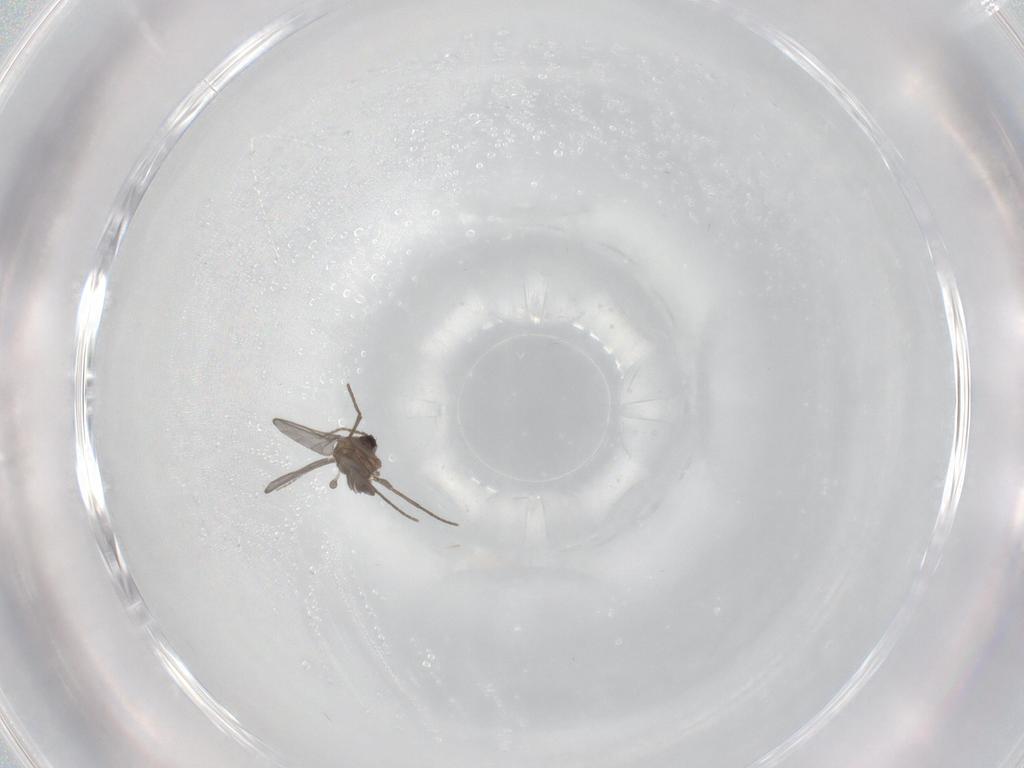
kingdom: Animalia
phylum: Arthropoda
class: Insecta
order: Diptera
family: Sciaridae
